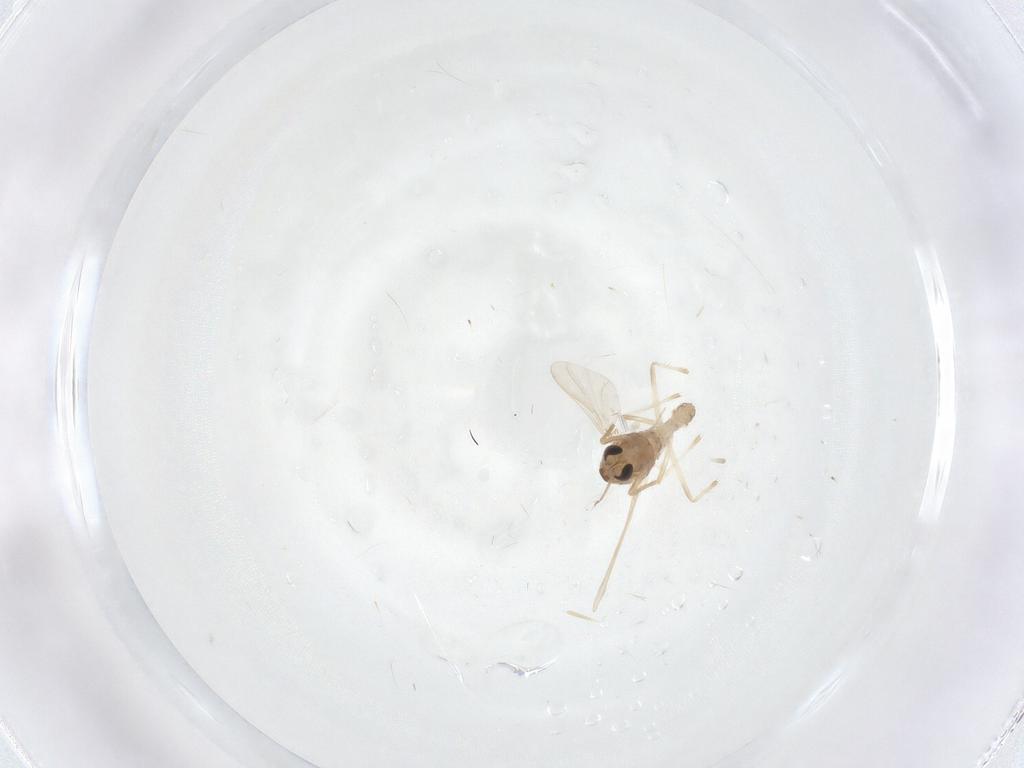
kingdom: Animalia
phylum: Arthropoda
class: Insecta
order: Diptera
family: Chironomidae
